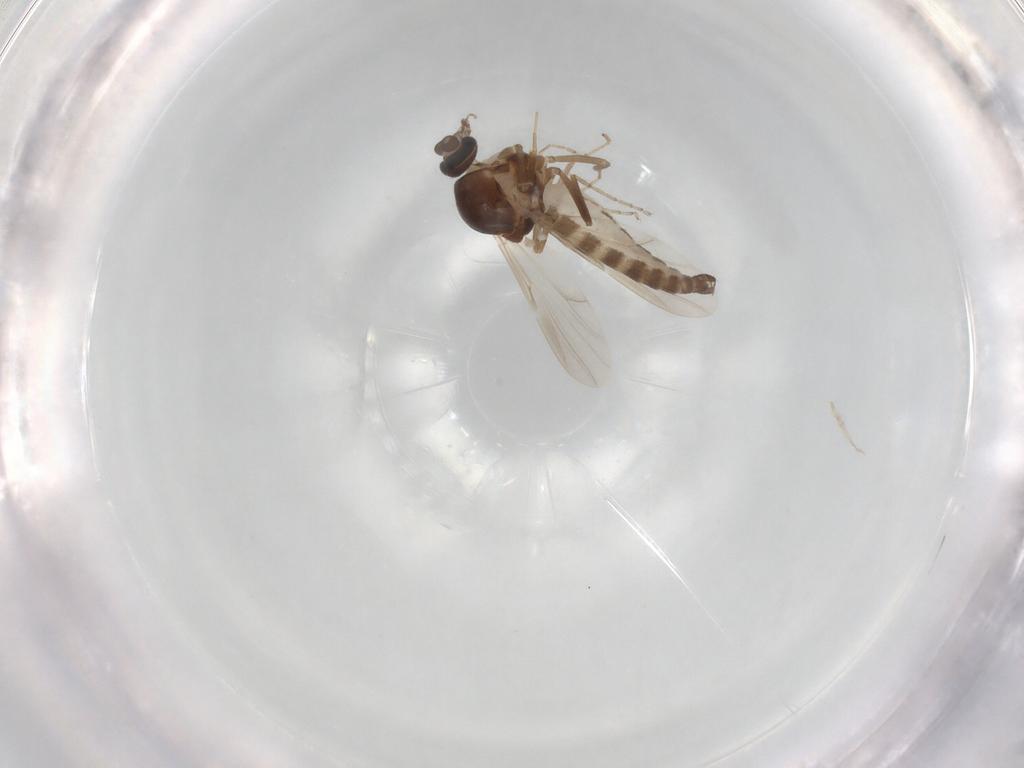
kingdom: Animalia
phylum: Arthropoda
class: Insecta
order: Diptera
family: Ceratopogonidae
